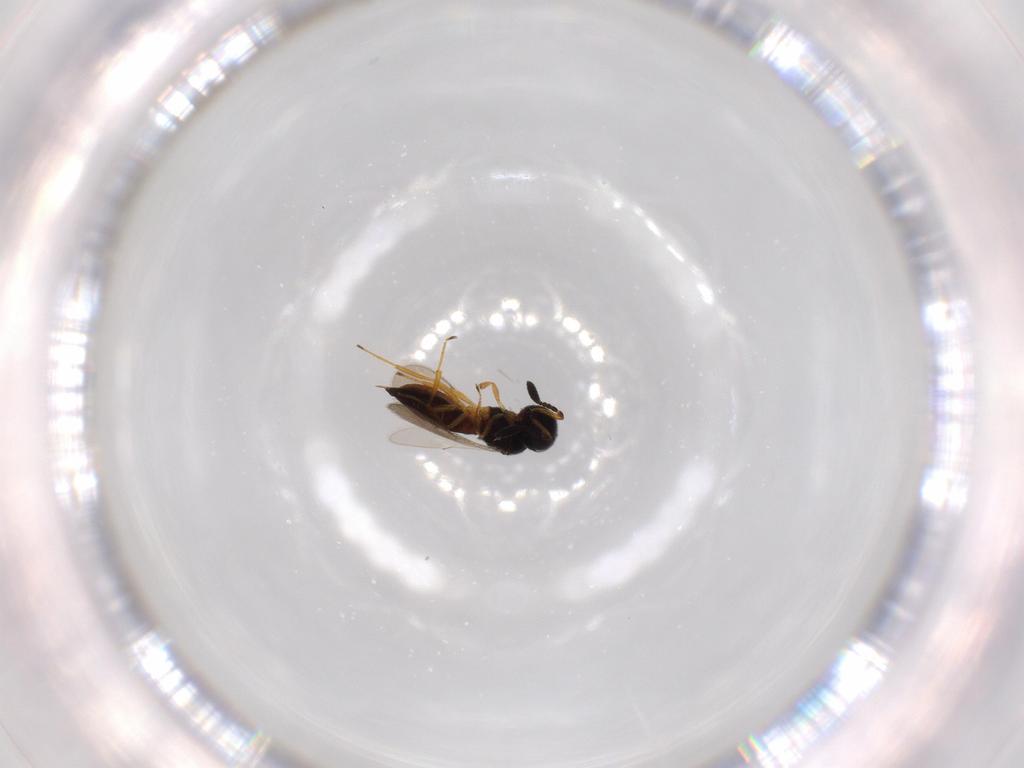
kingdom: Animalia
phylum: Arthropoda
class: Insecta
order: Hymenoptera
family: Scelionidae
